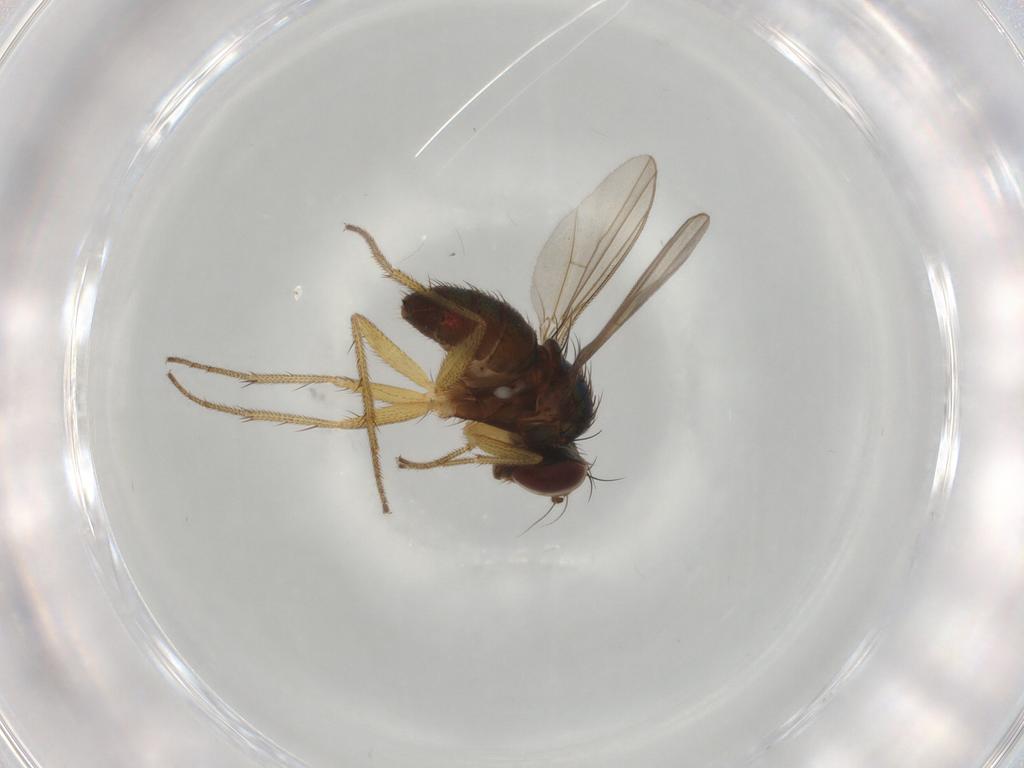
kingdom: Animalia
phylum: Arthropoda
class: Insecta
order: Diptera
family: Dolichopodidae
